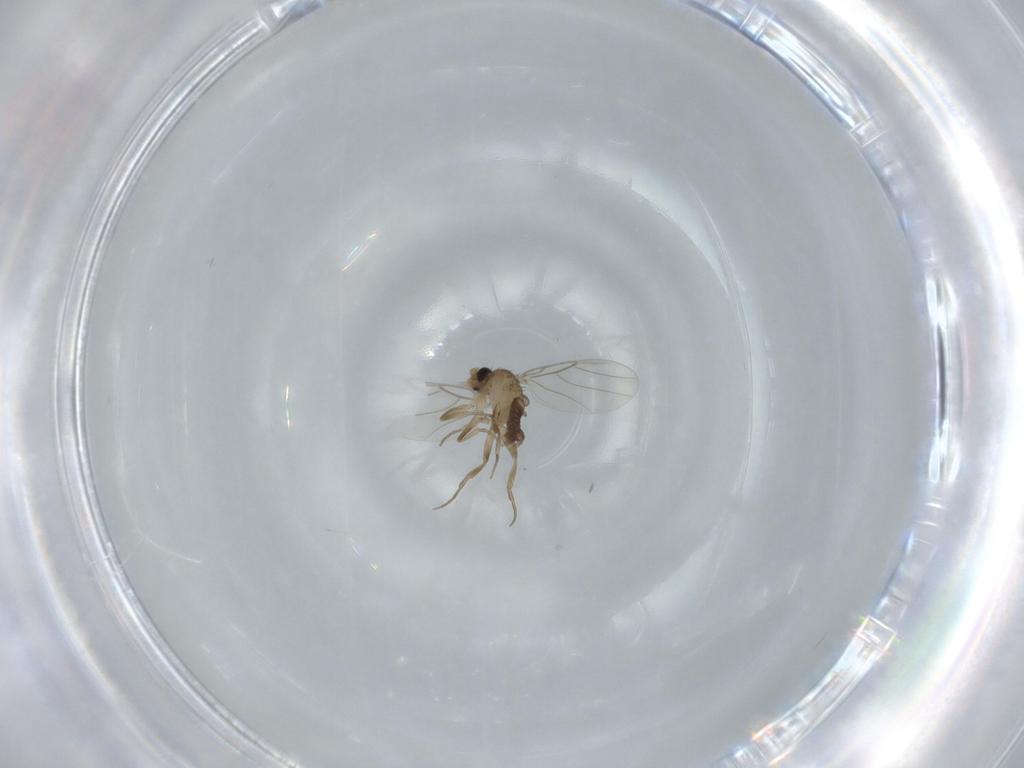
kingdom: Animalia
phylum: Arthropoda
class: Insecta
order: Diptera
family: Phoridae
